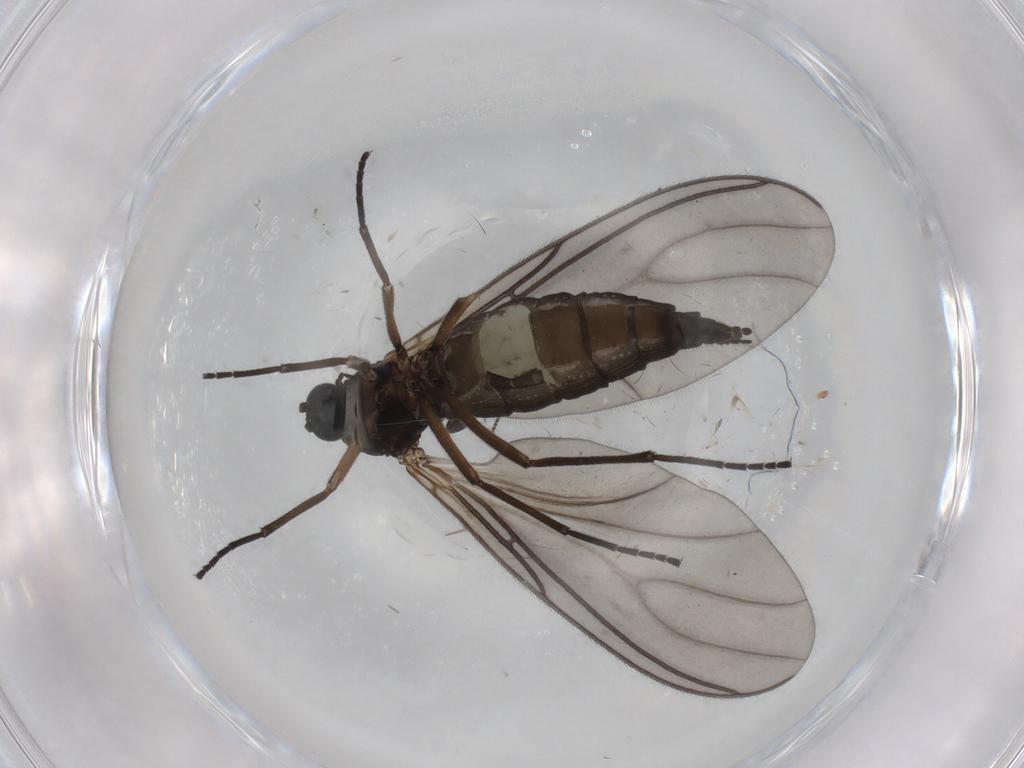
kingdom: Animalia
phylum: Arthropoda
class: Insecta
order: Diptera
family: Sciaridae
